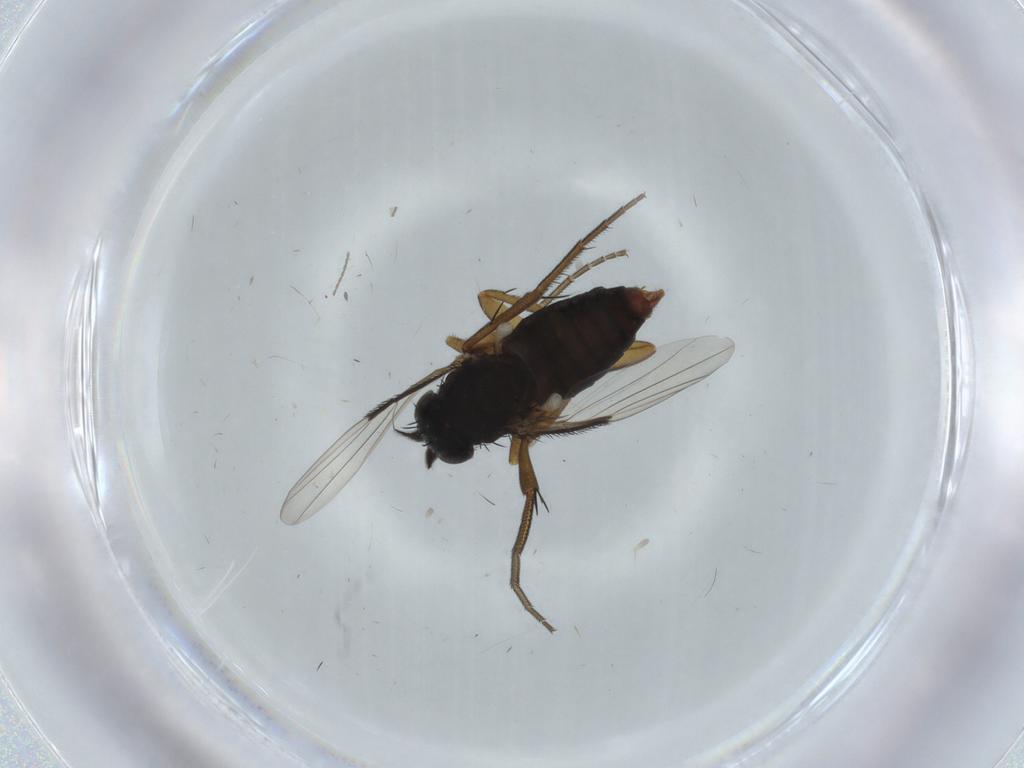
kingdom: Animalia
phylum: Arthropoda
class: Insecta
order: Diptera
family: Phoridae
